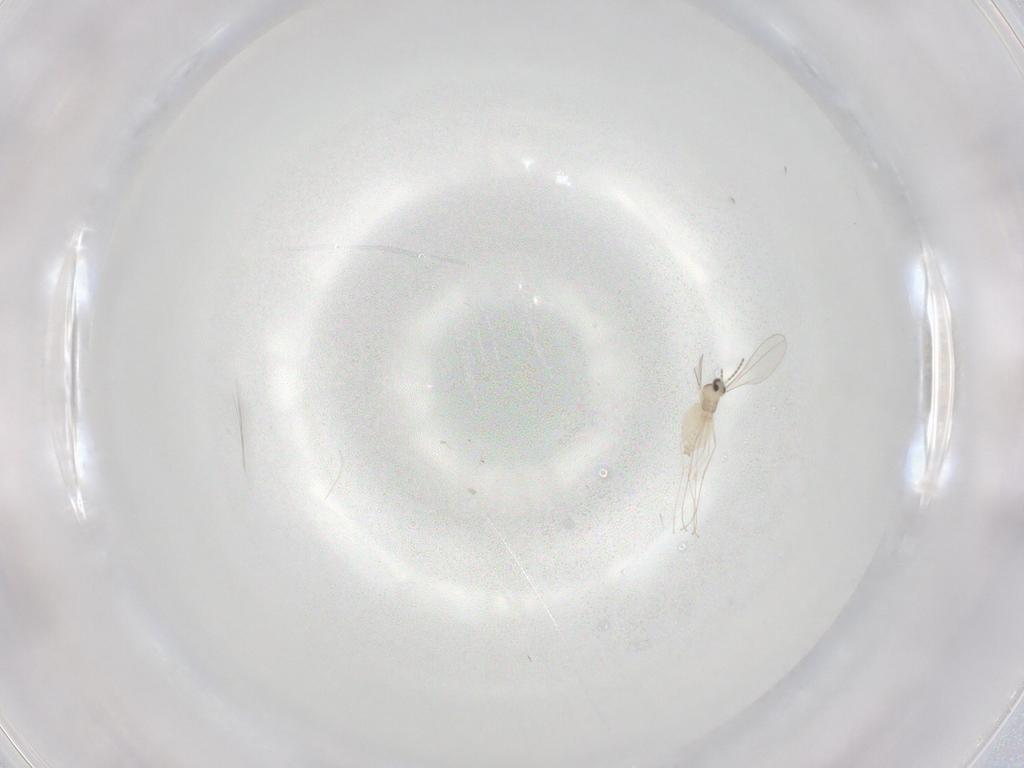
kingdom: Animalia
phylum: Arthropoda
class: Insecta
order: Diptera
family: Cecidomyiidae
